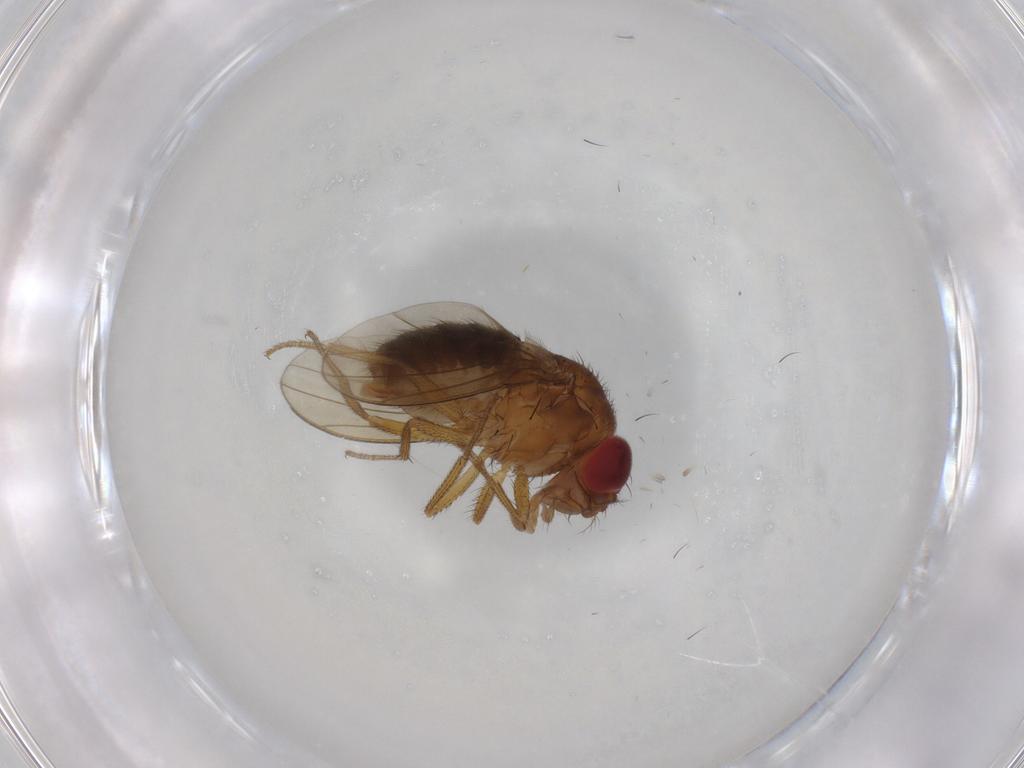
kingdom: Animalia
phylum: Arthropoda
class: Insecta
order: Diptera
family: Drosophilidae
